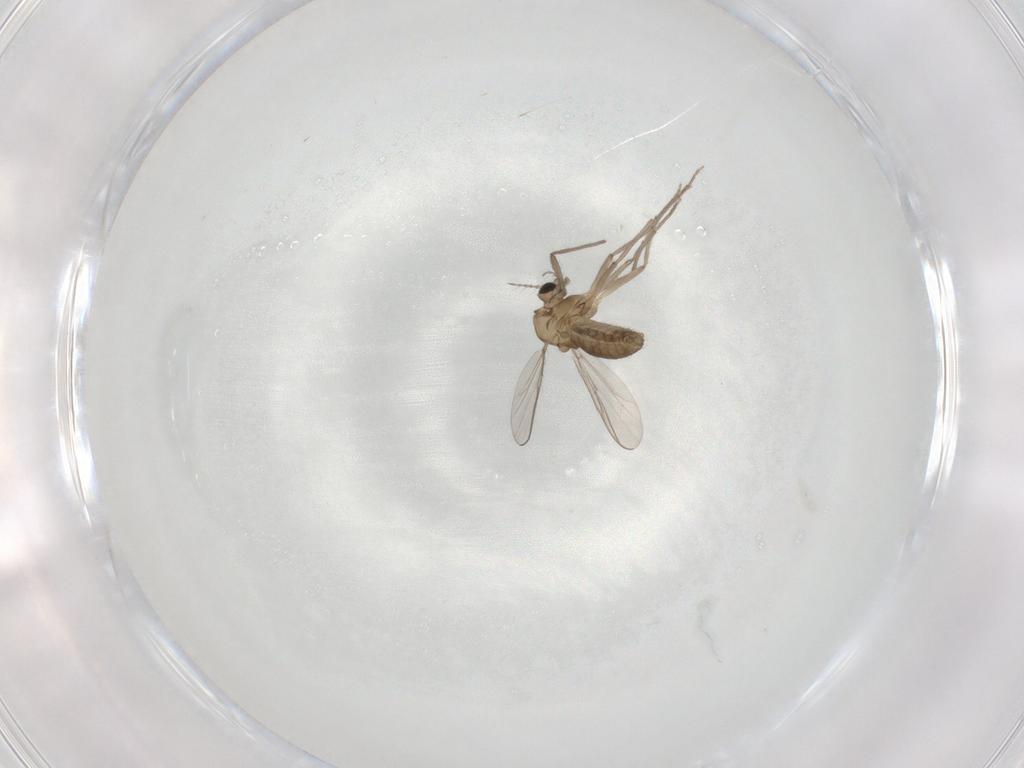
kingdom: Animalia
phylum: Arthropoda
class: Insecta
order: Diptera
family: Chironomidae
